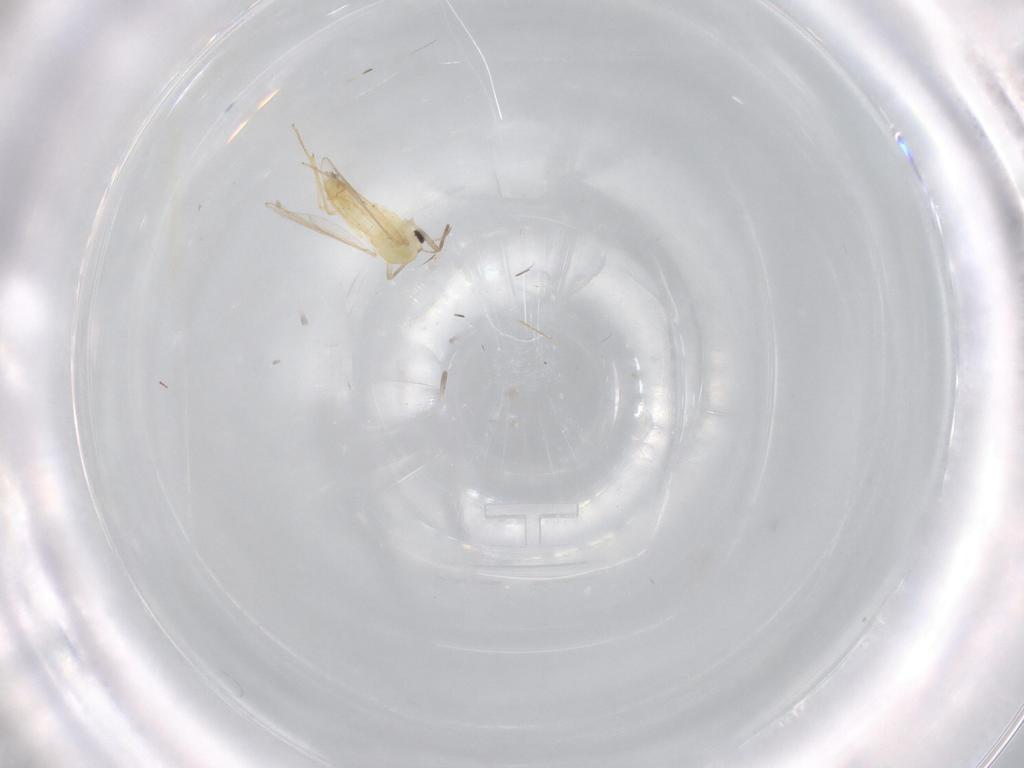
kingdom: Animalia
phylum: Arthropoda
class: Insecta
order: Diptera
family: Chironomidae
